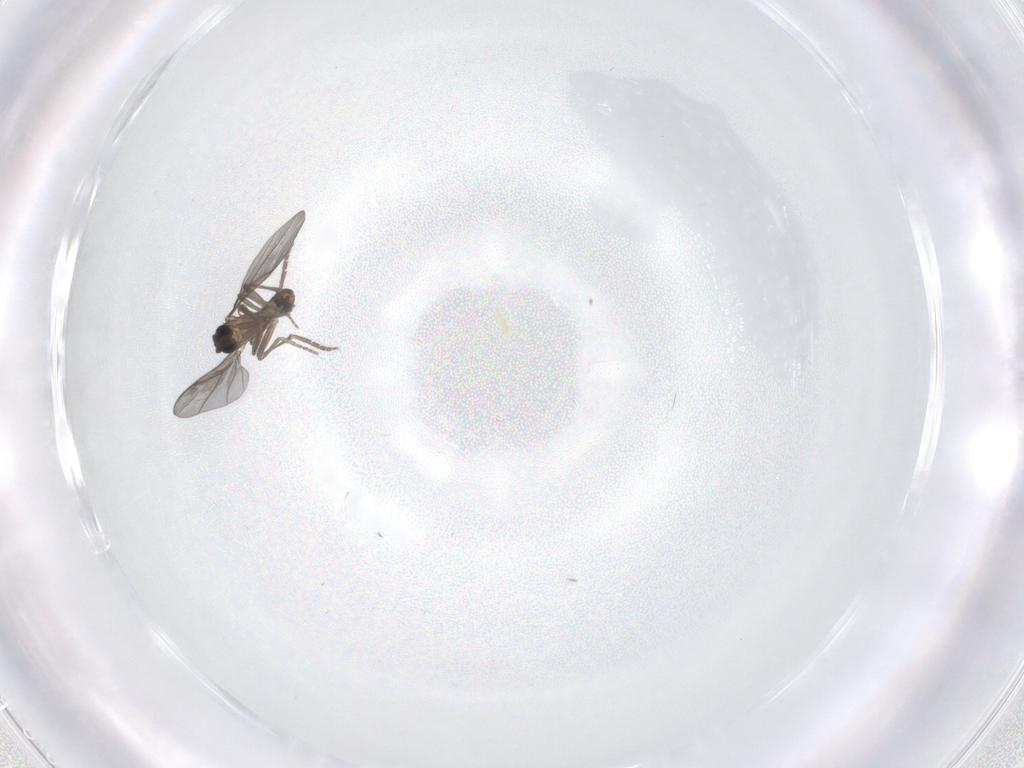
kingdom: Animalia
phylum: Arthropoda
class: Insecta
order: Diptera
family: Phoridae
